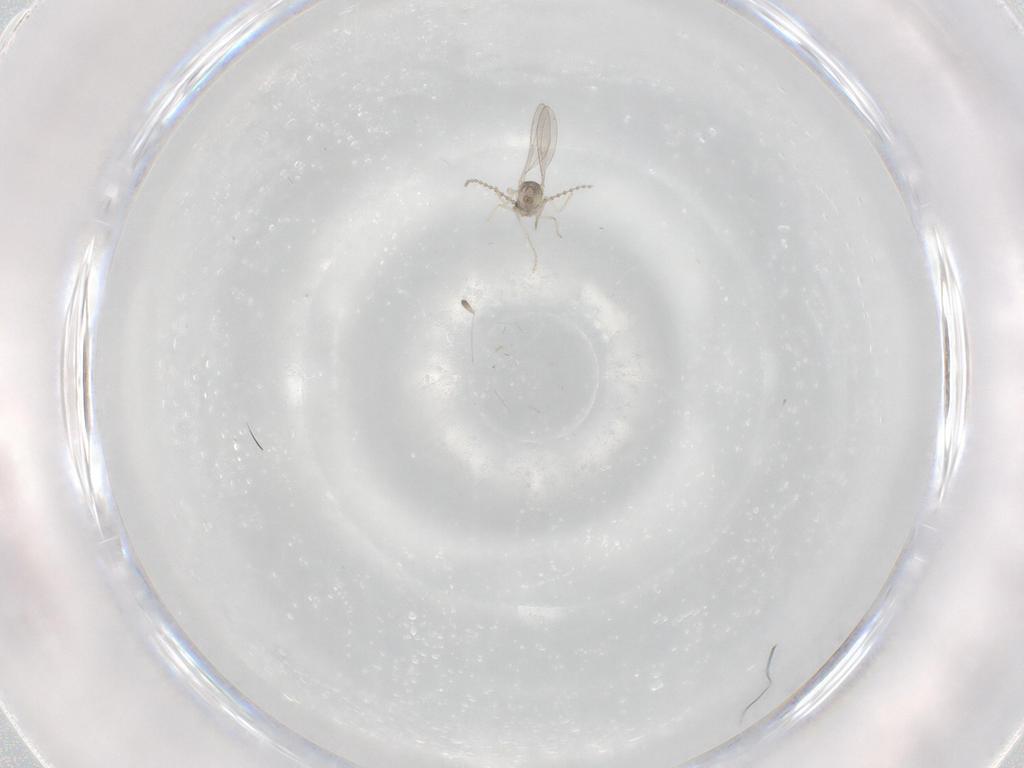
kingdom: Animalia
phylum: Arthropoda
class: Insecta
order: Diptera
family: Cecidomyiidae
